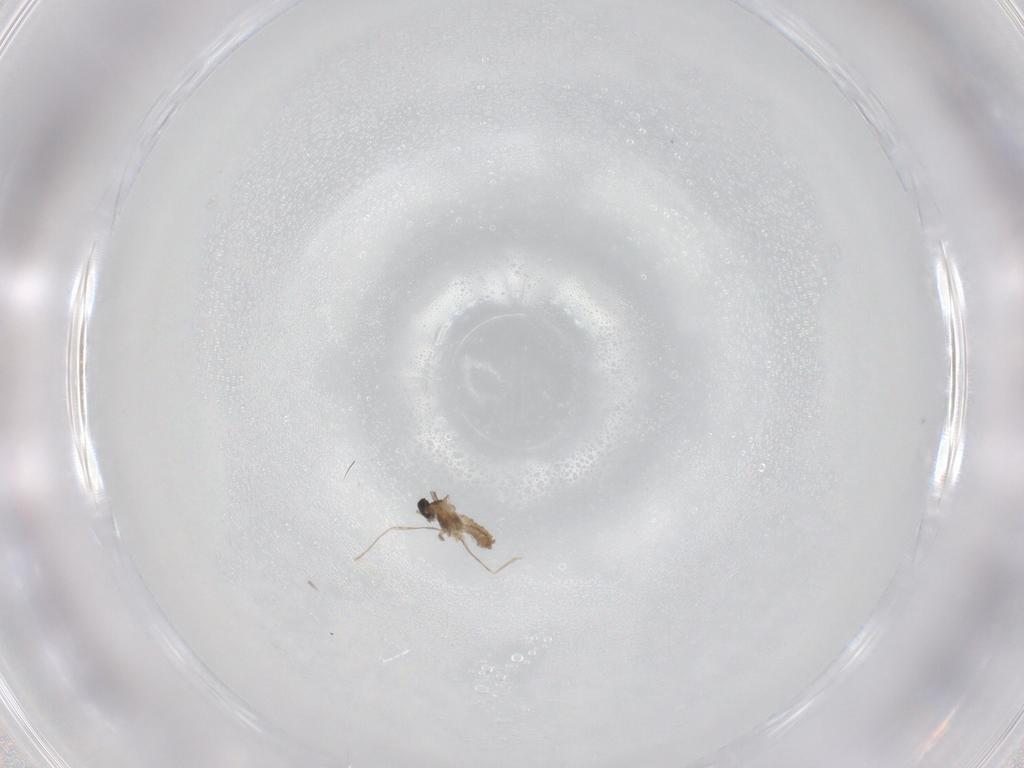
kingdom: Animalia
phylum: Arthropoda
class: Insecta
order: Diptera
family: Cecidomyiidae
